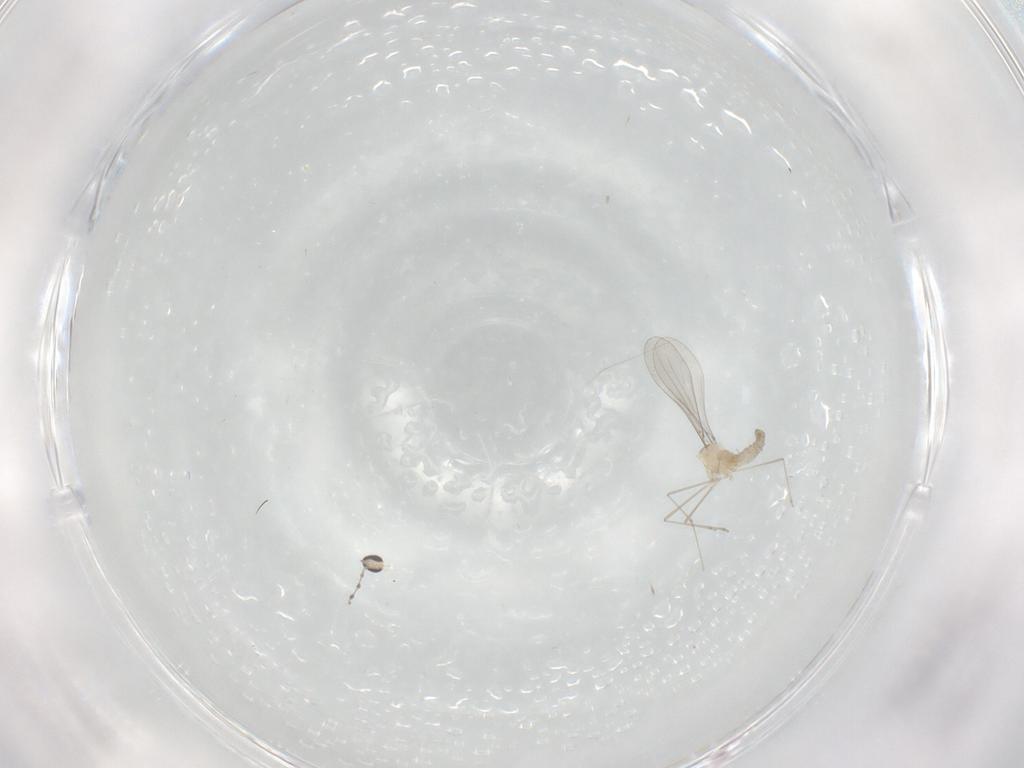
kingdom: Animalia
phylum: Arthropoda
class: Insecta
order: Diptera
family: Cecidomyiidae
